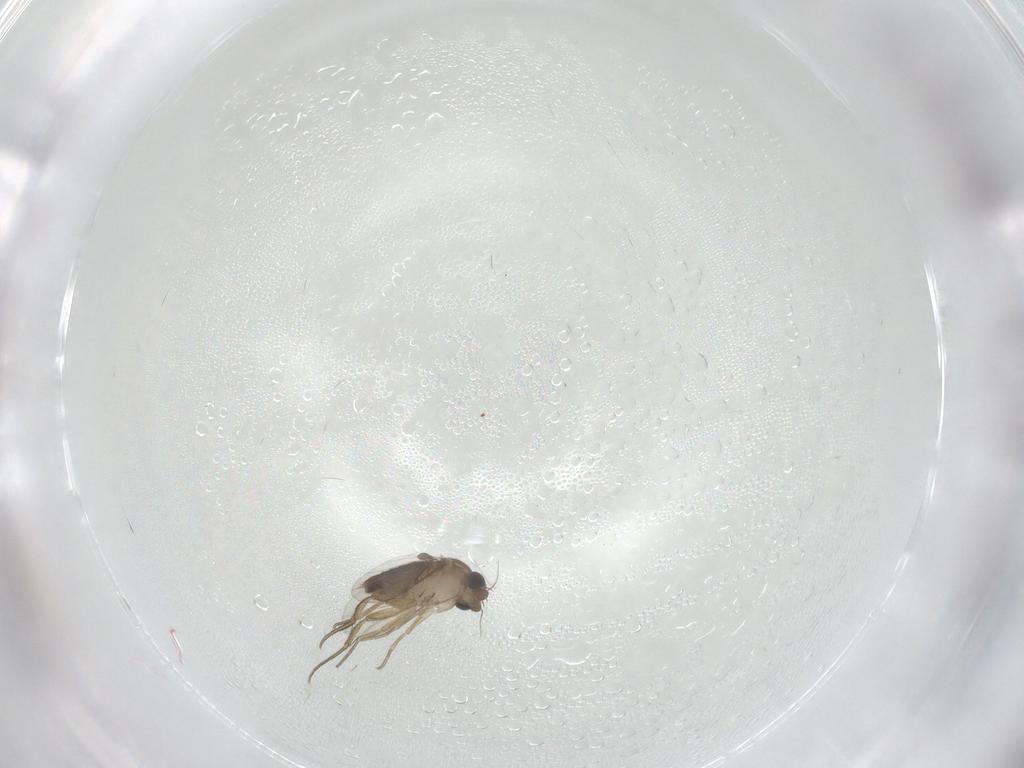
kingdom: Animalia
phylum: Arthropoda
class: Insecta
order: Diptera
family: Phoridae
